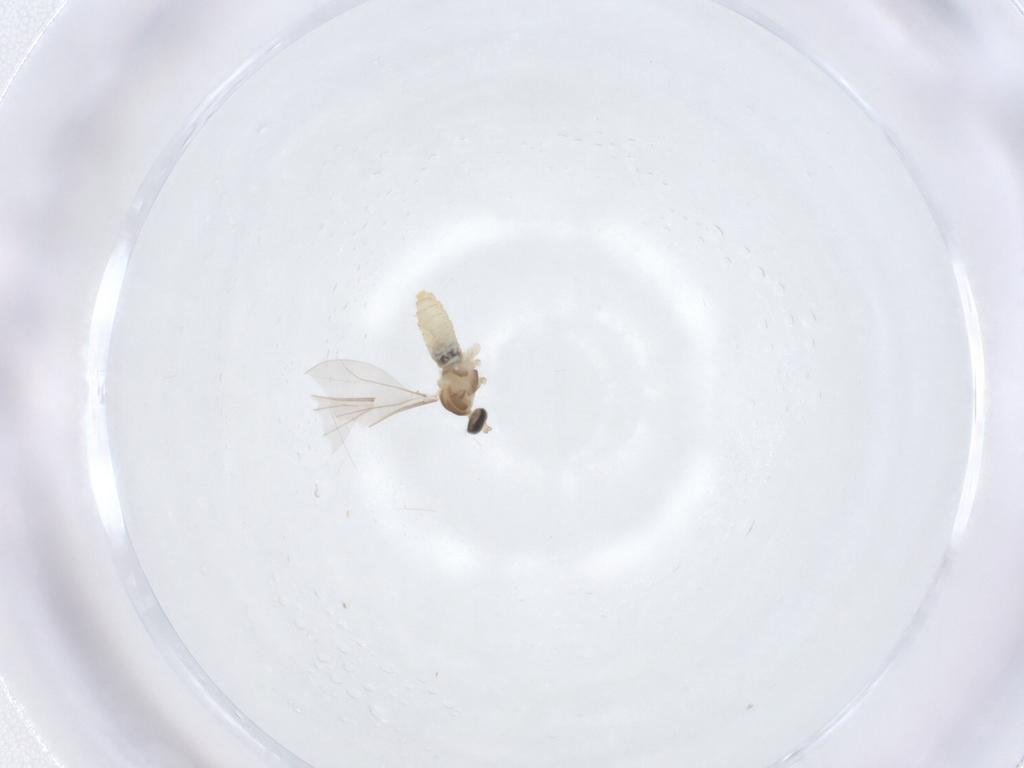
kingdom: Animalia
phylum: Arthropoda
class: Insecta
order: Diptera
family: Cecidomyiidae
